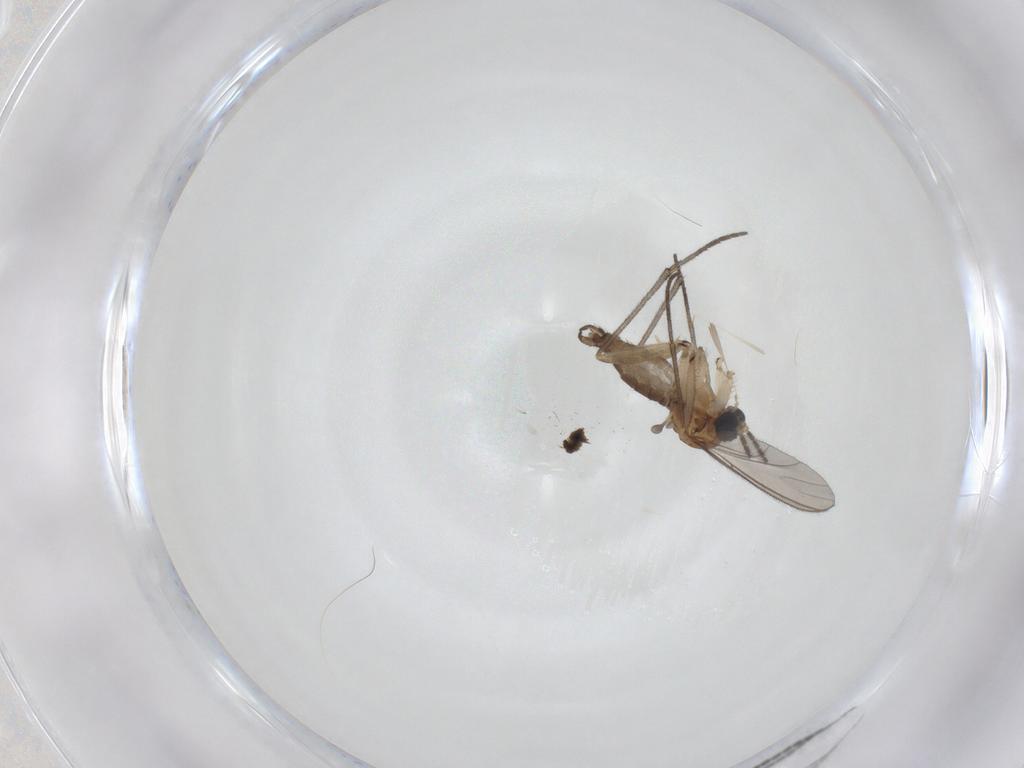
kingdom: Animalia
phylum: Arthropoda
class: Insecta
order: Diptera
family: Sciaridae
